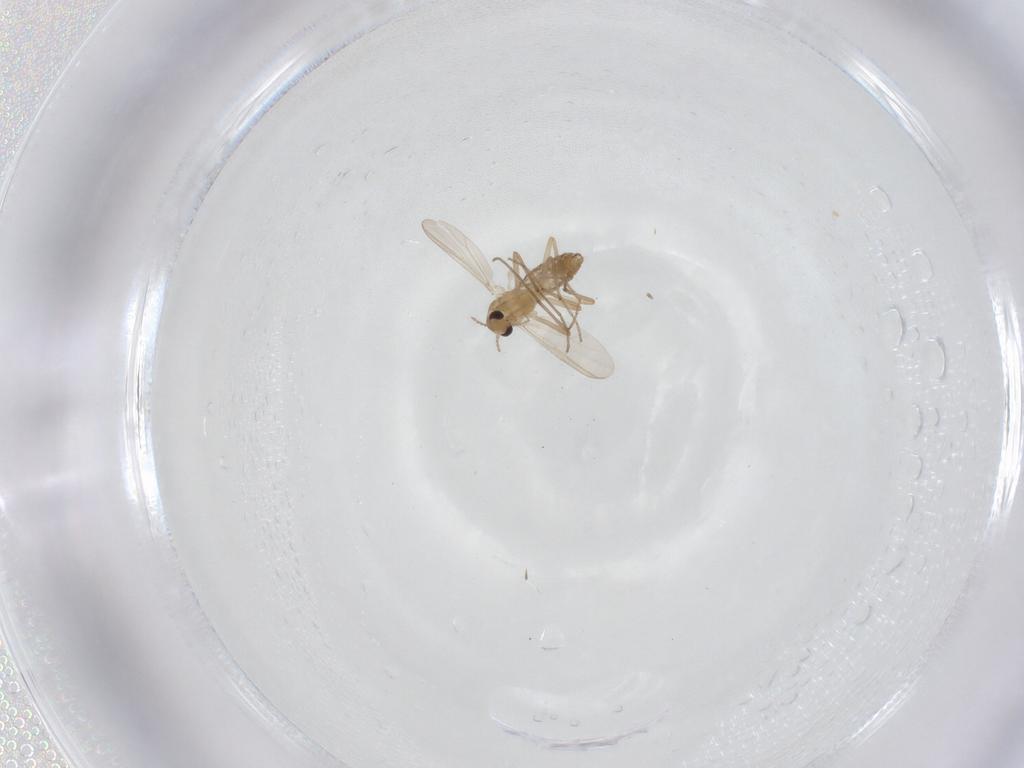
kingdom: Animalia
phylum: Arthropoda
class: Insecta
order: Diptera
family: Chironomidae
